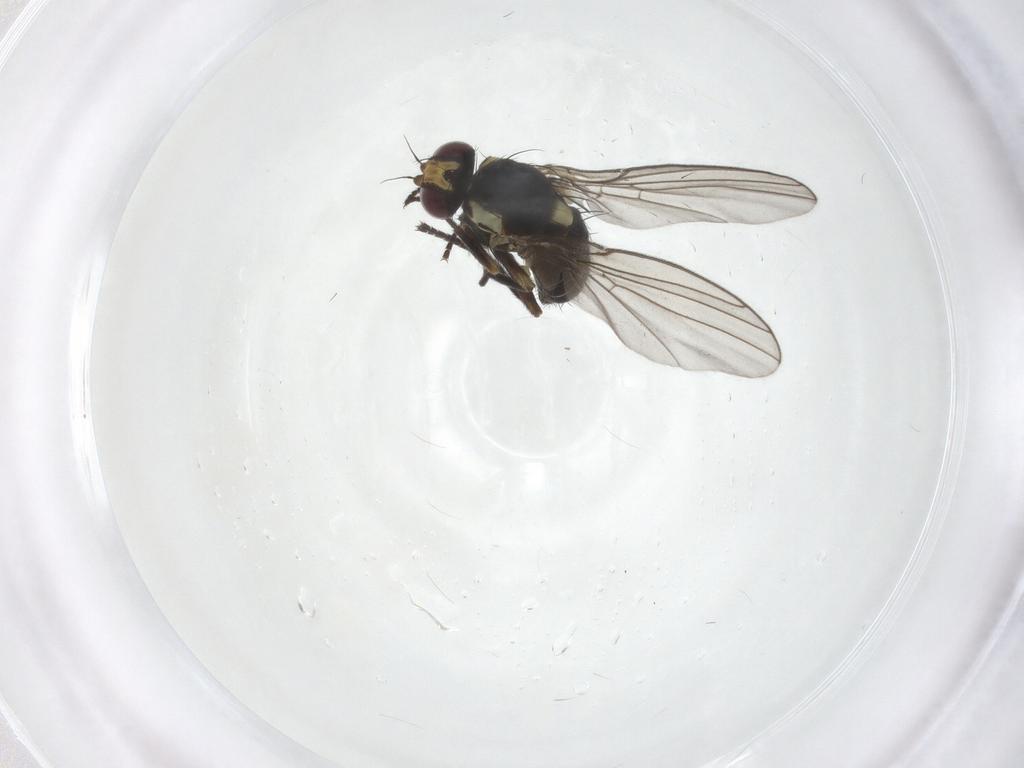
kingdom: Animalia
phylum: Arthropoda
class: Insecta
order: Diptera
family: Agromyzidae
